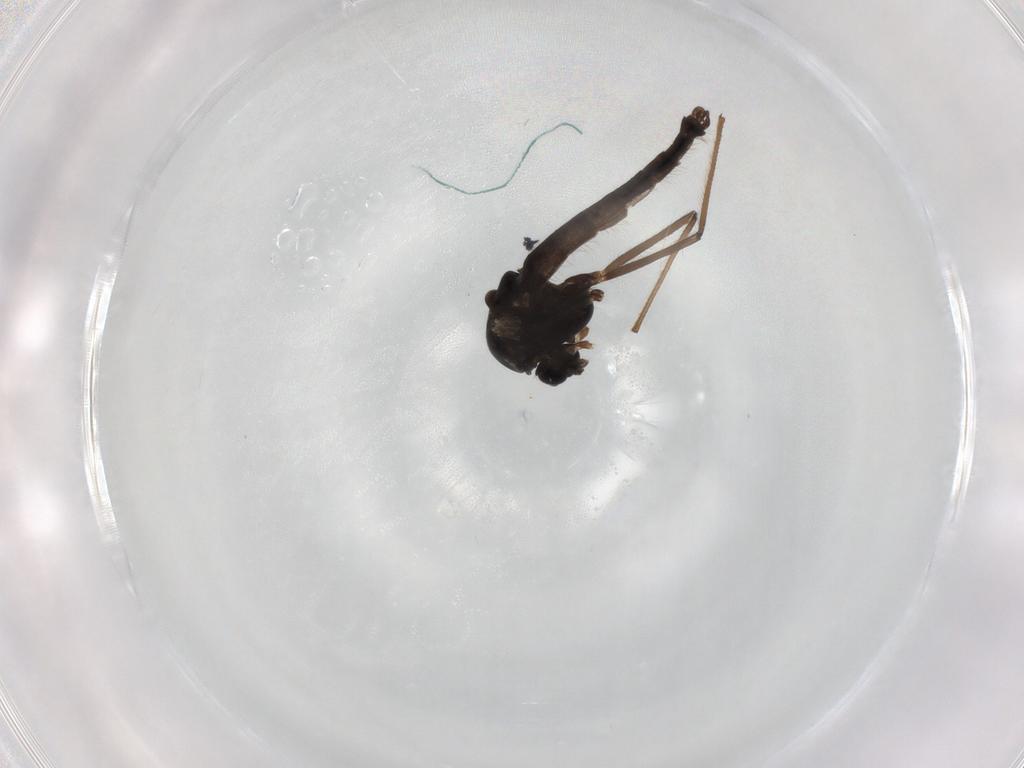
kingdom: Animalia
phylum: Arthropoda
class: Insecta
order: Diptera
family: Chironomidae
